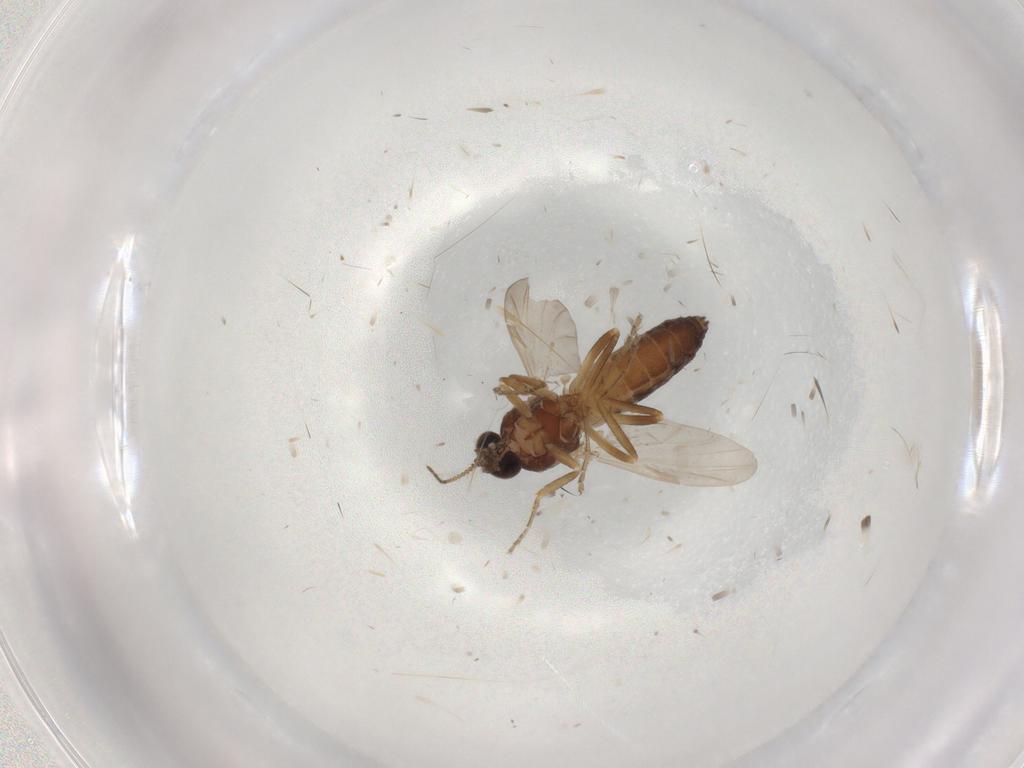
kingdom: Animalia
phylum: Arthropoda
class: Insecta
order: Diptera
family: Ceratopogonidae
